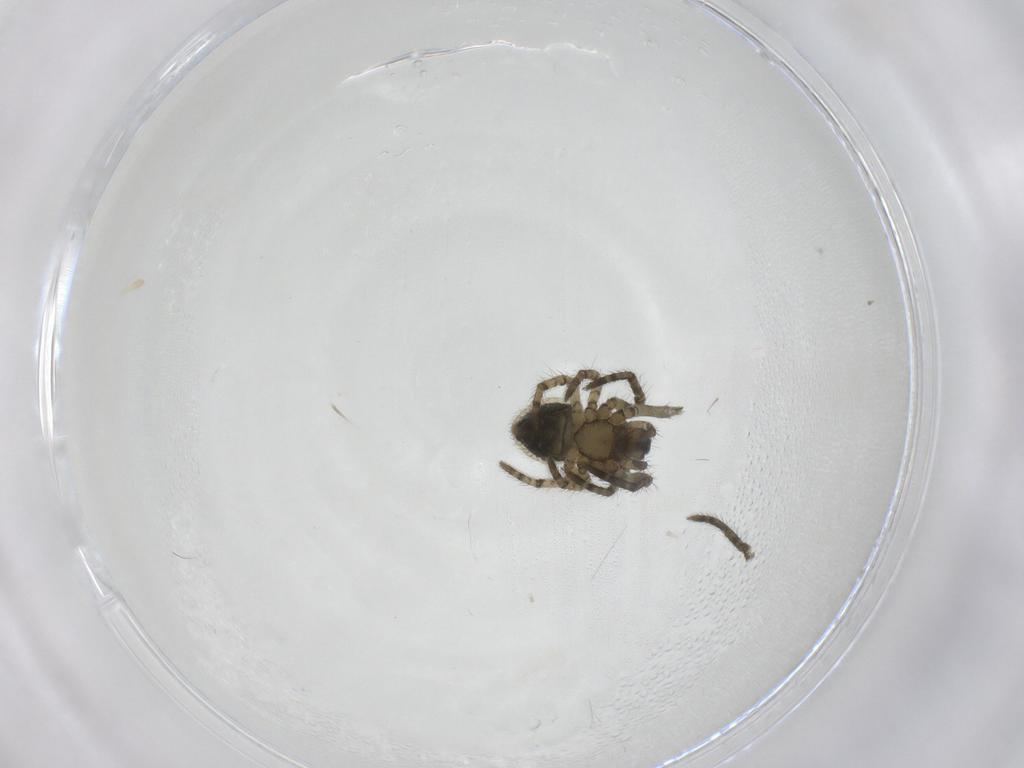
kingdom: Animalia
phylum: Arthropoda
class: Arachnida
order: Araneae
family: Araneidae
